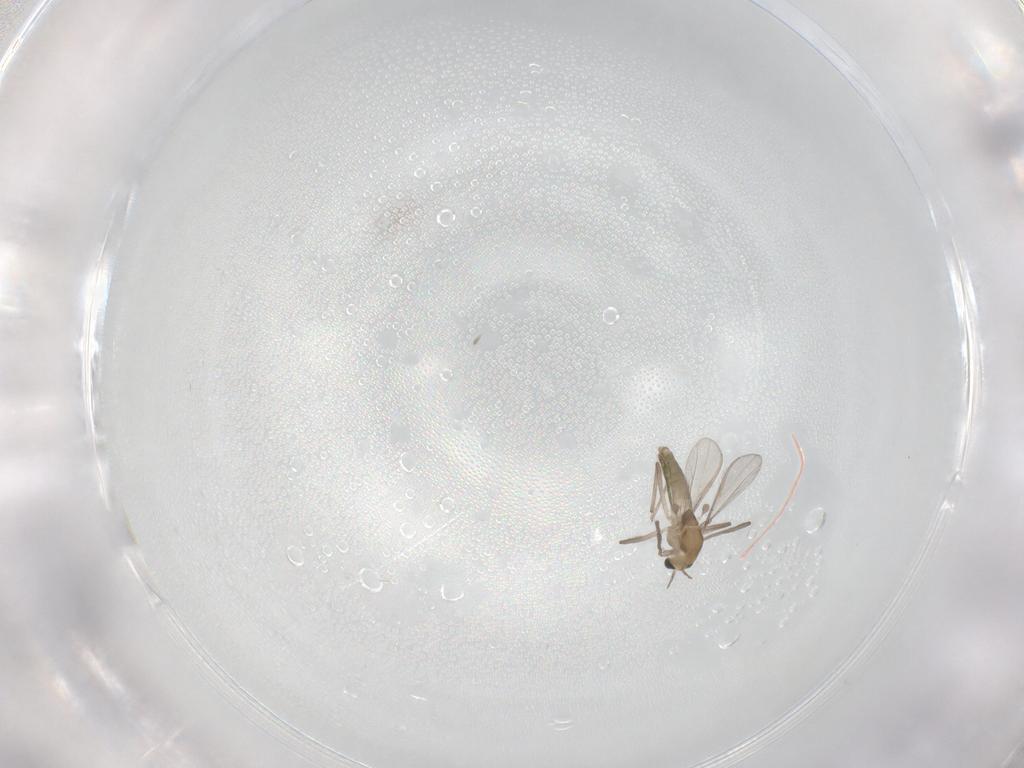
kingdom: Animalia
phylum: Arthropoda
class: Insecta
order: Diptera
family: Chironomidae
